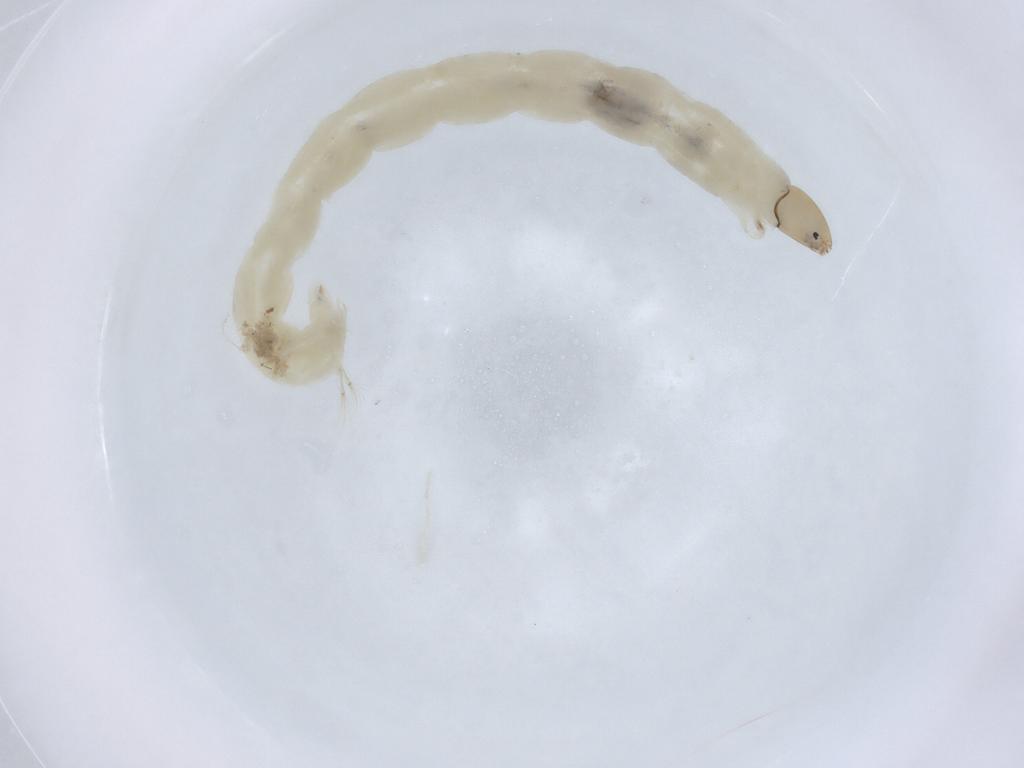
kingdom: Animalia
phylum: Arthropoda
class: Insecta
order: Diptera
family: Chironomidae
